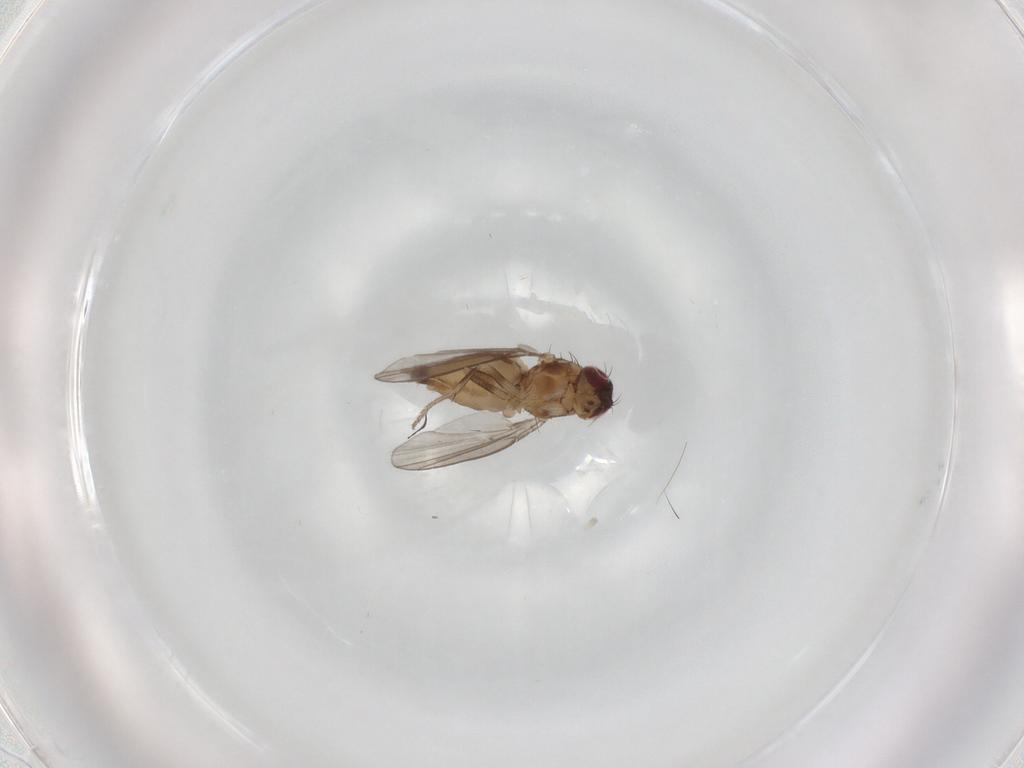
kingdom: Animalia
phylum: Arthropoda
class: Insecta
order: Diptera
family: Milichiidae
